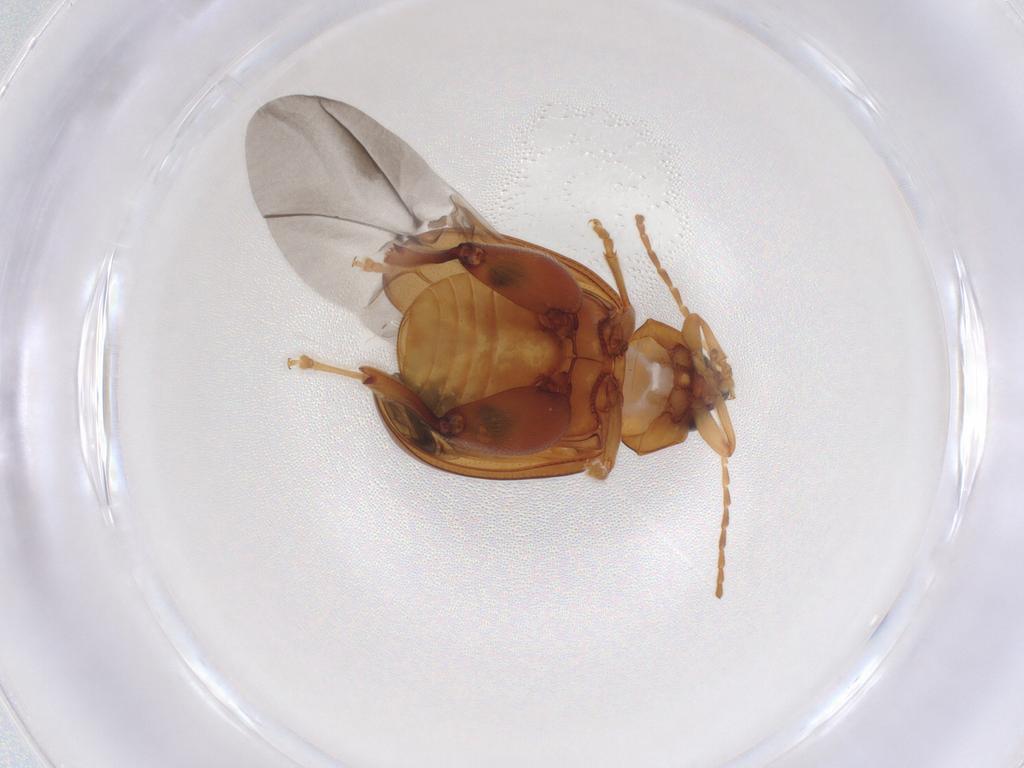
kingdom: Animalia
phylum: Arthropoda
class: Insecta
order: Coleoptera
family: Chrysomelidae
